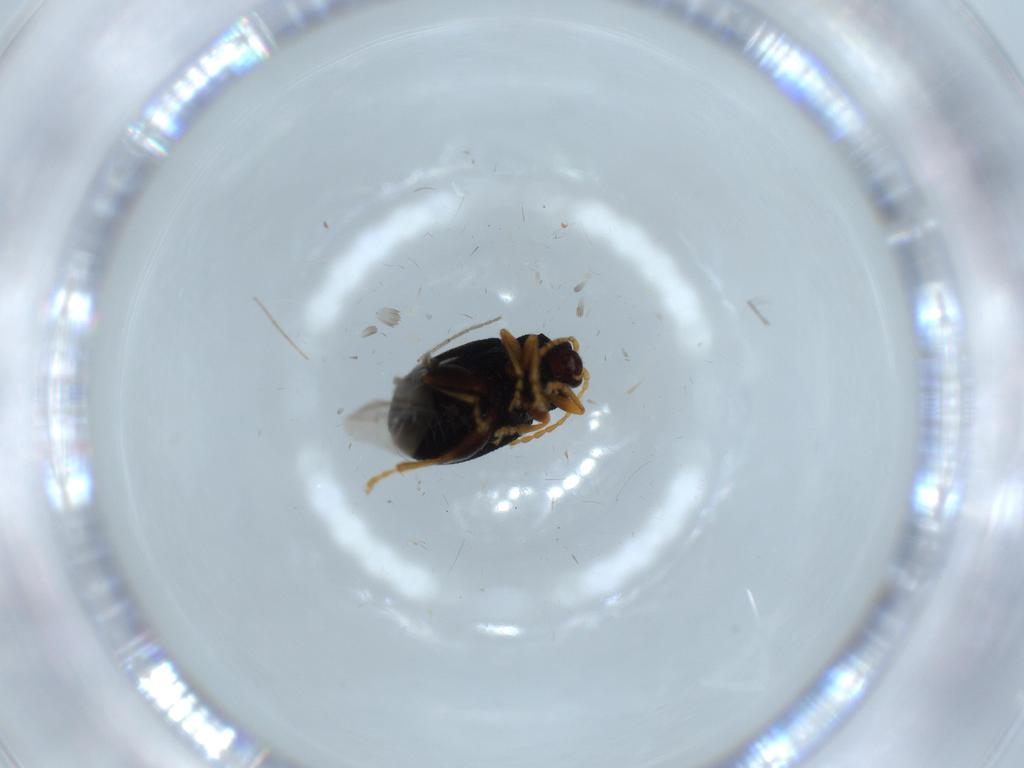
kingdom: Animalia
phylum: Arthropoda
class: Insecta
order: Coleoptera
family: Chrysomelidae
